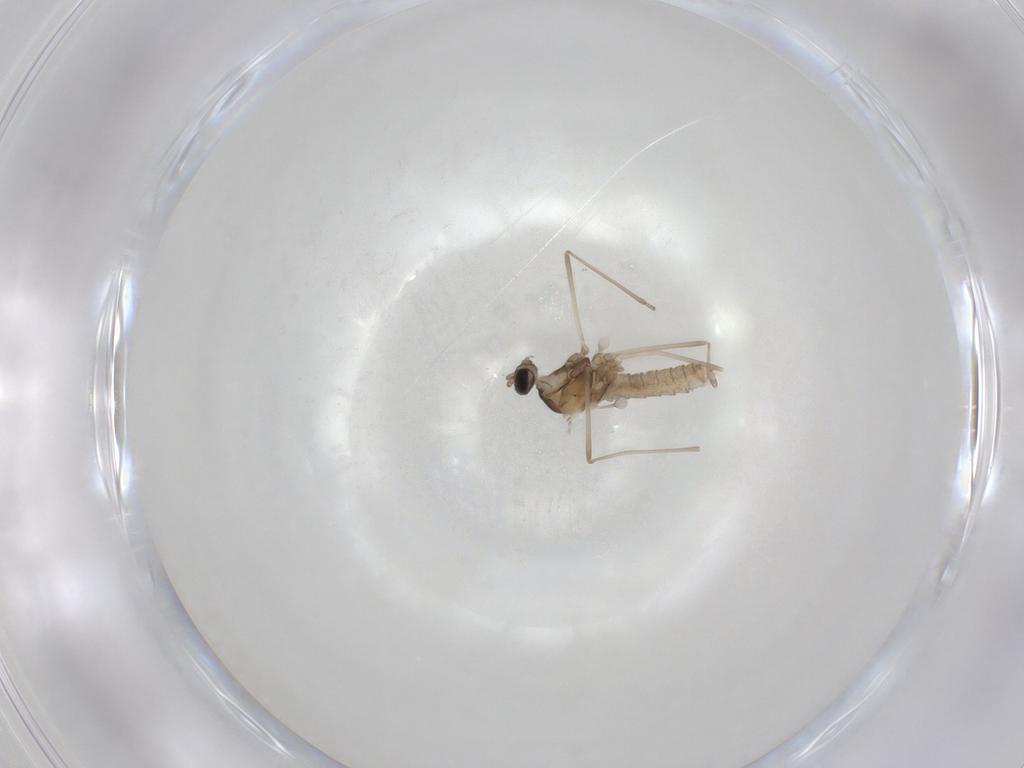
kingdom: Animalia
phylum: Arthropoda
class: Insecta
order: Diptera
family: Cecidomyiidae
